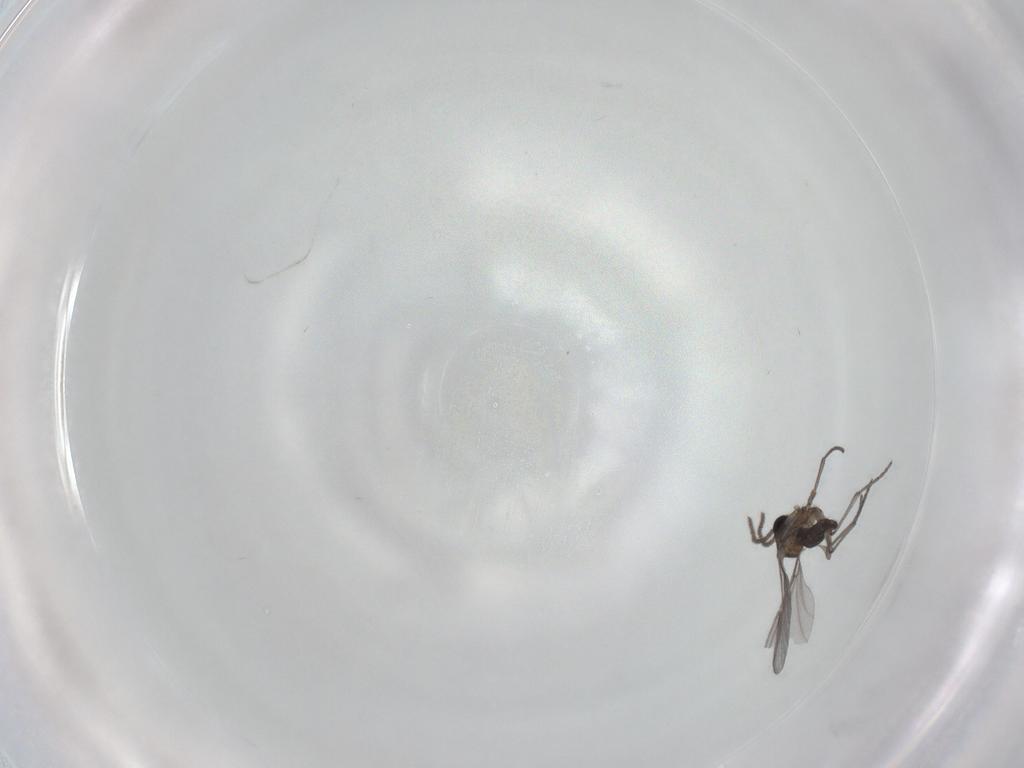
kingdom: Animalia
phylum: Arthropoda
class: Insecta
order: Diptera
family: Sciaridae
